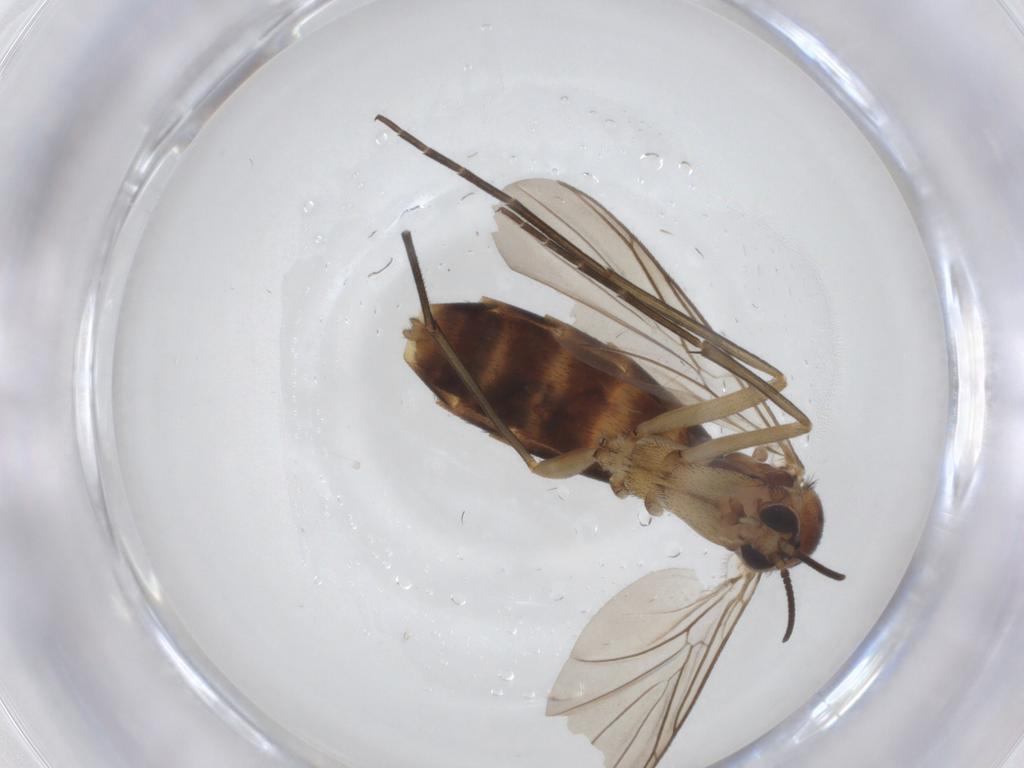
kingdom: Animalia
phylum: Arthropoda
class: Insecta
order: Diptera
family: Keroplatidae
